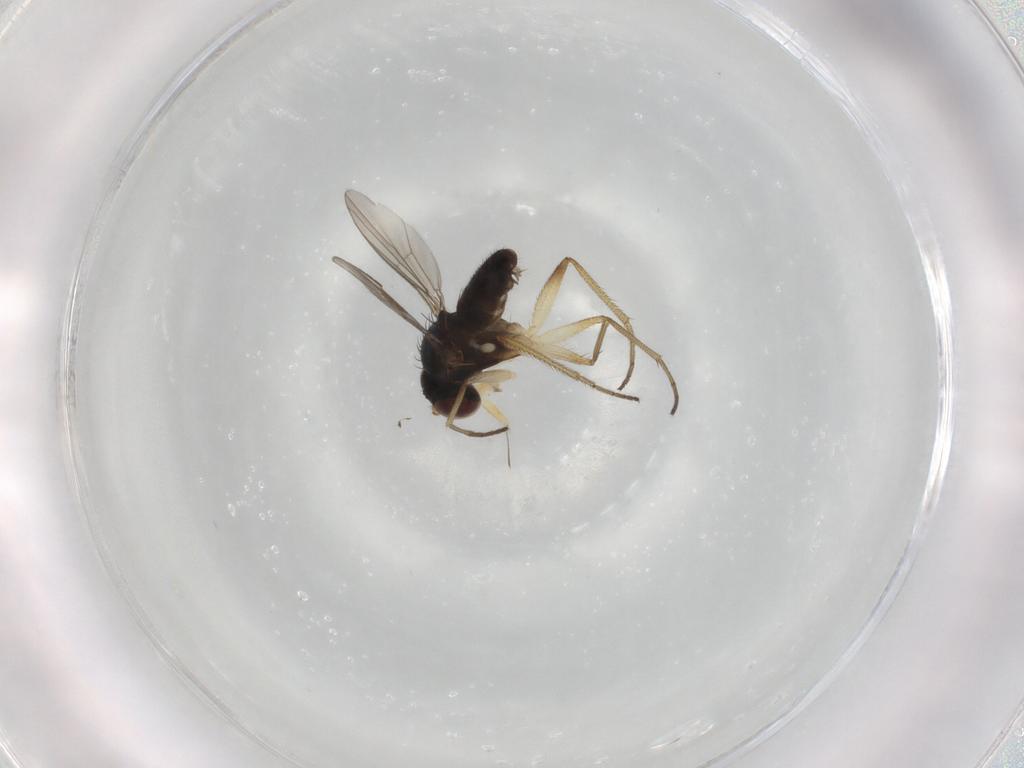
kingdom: Animalia
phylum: Arthropoda
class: Insecta
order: Diptera
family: Dolichopodidae
